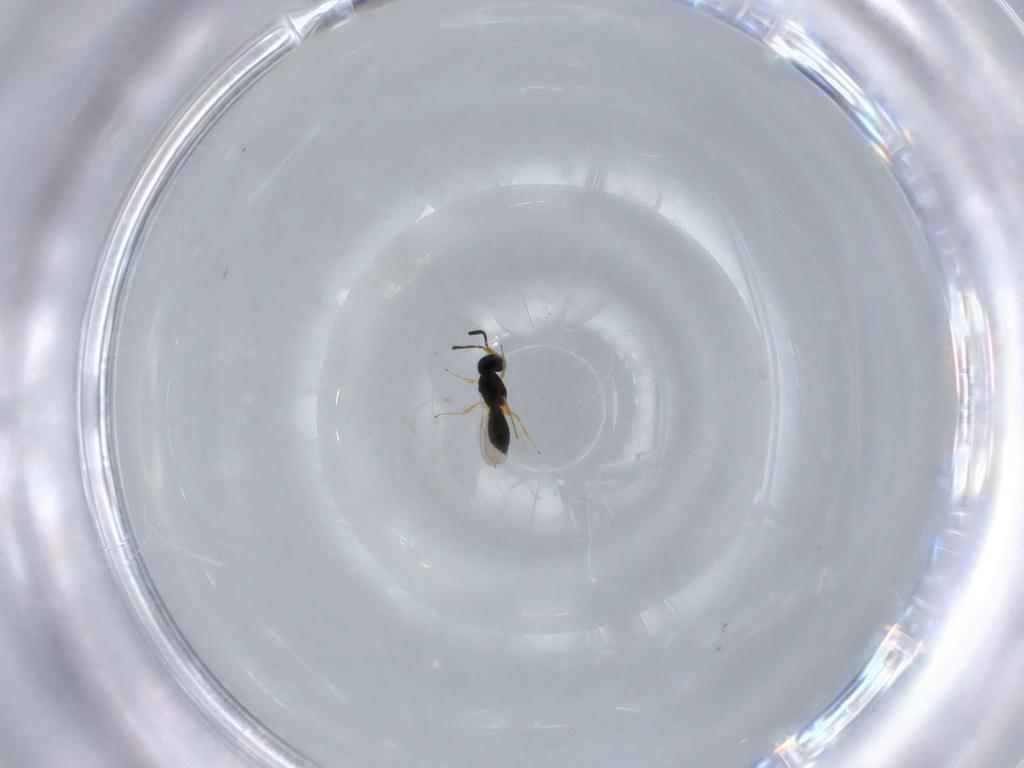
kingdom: Animalia
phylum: Arthropoda
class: Insecta
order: Hymenoptera
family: Scelionidae
